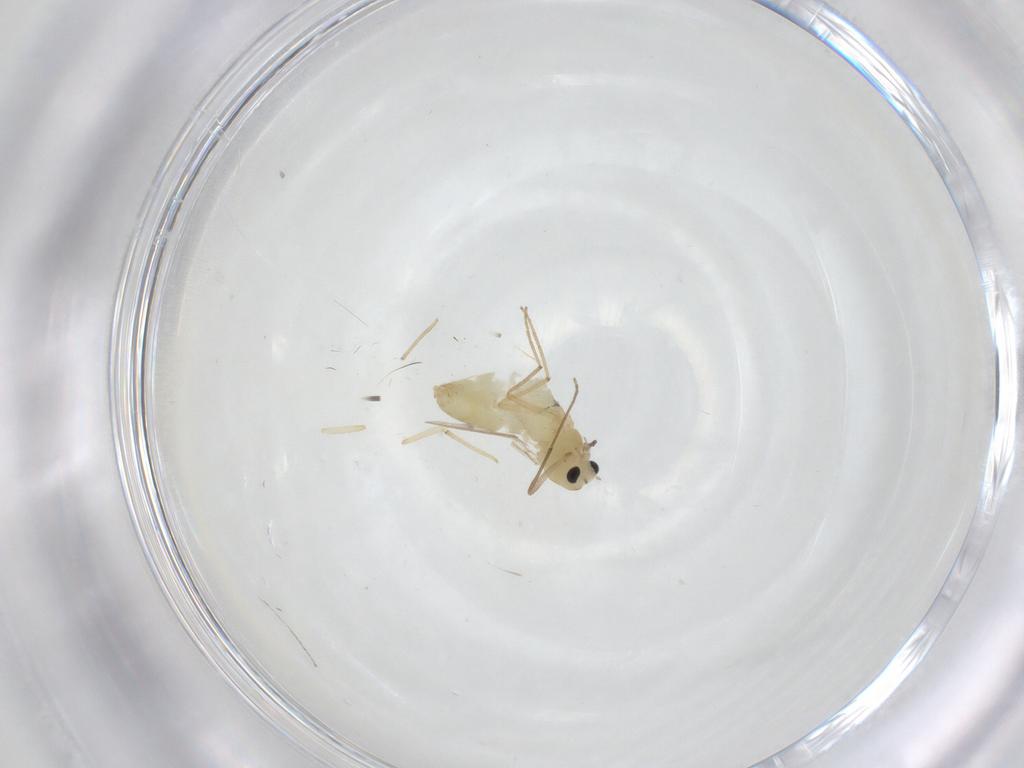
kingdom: Animalia
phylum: Arthropoda
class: Insecta
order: Diptera
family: Chironomidae
